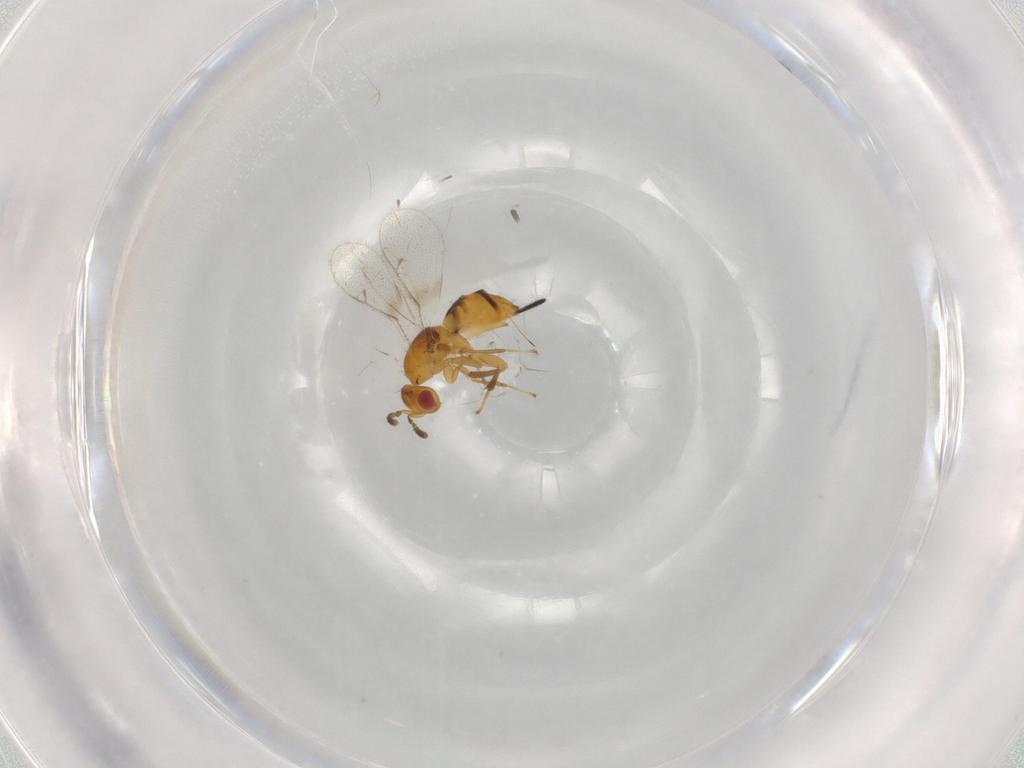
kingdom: Animalia
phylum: Arthropoda
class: Insecta
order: Hymenoptera
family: Torymidae
